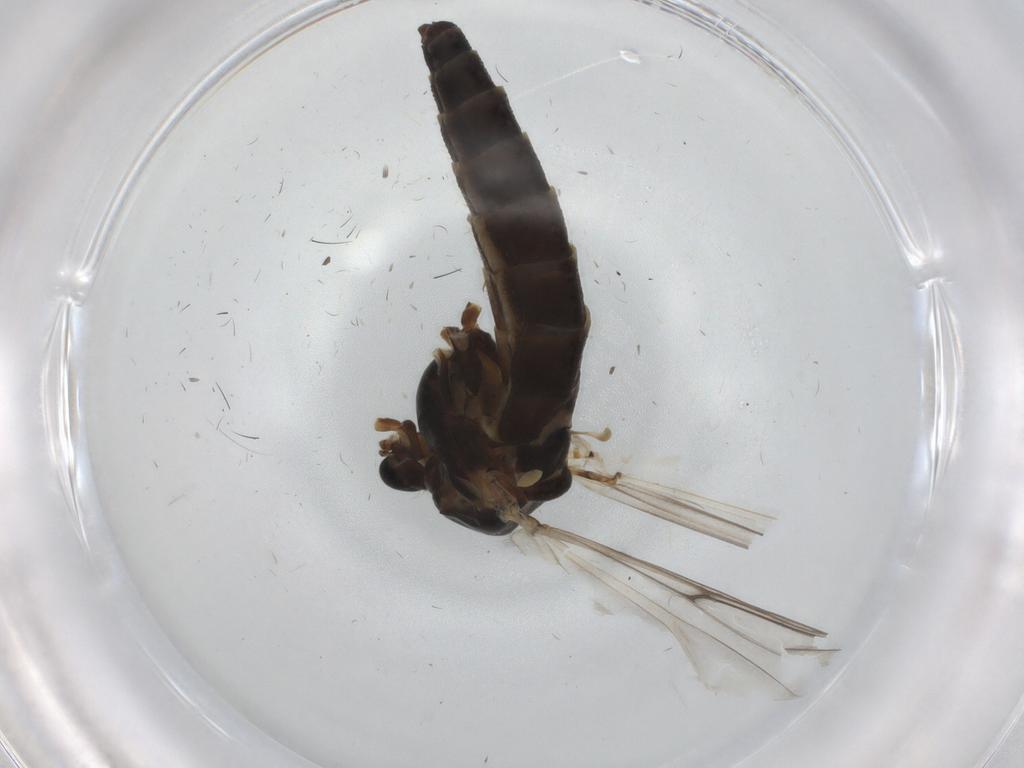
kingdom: Animalia
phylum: Arthropoda
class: Insecta
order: Diptera
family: Chironomidae
